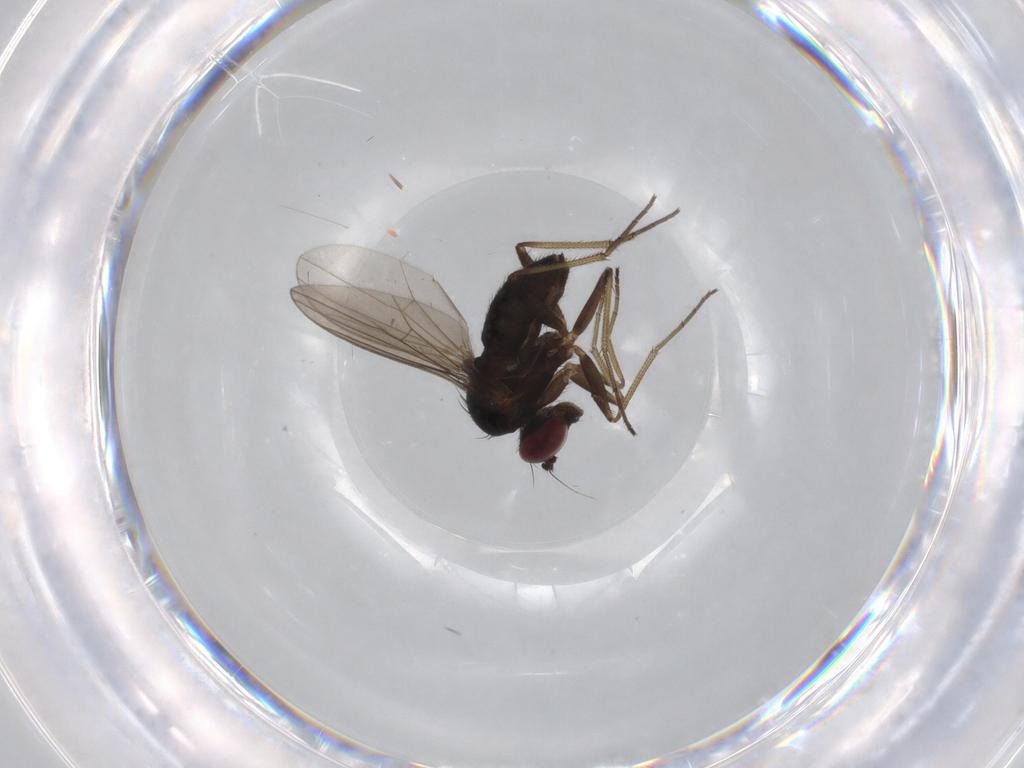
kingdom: Animalia
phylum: Arthropoda
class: Insecta
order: Diptera
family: Dolichopodidae
